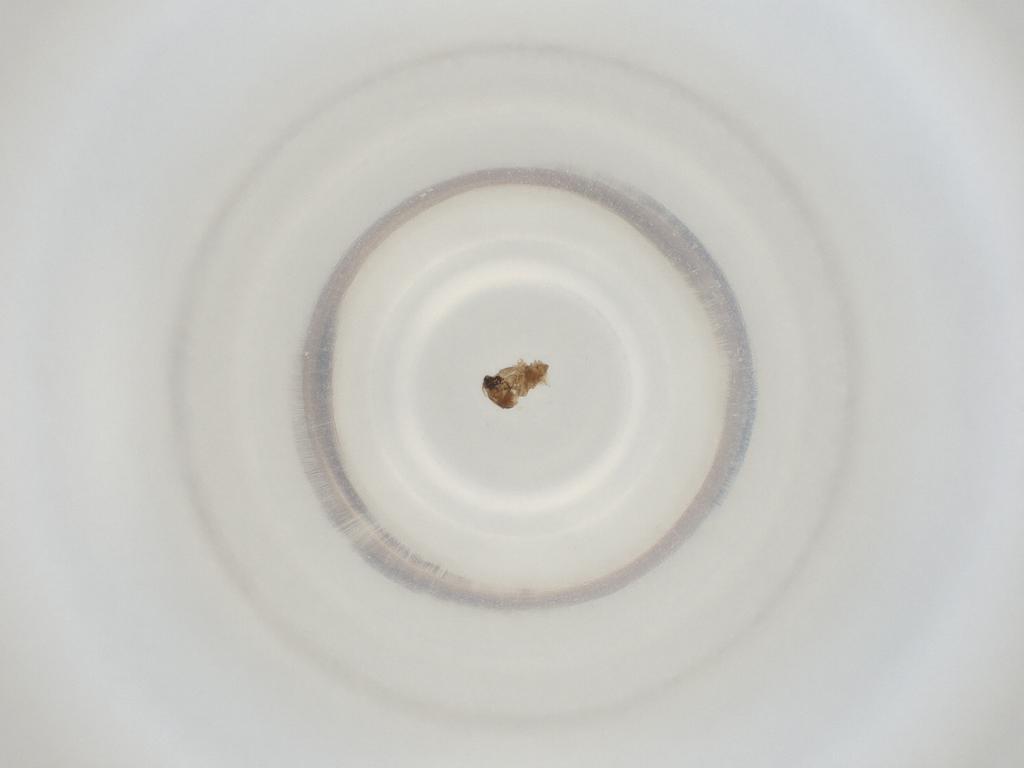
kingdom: Animalia
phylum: Arthropoda
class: Insecta
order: Diptera
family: Cecidomyiidae
